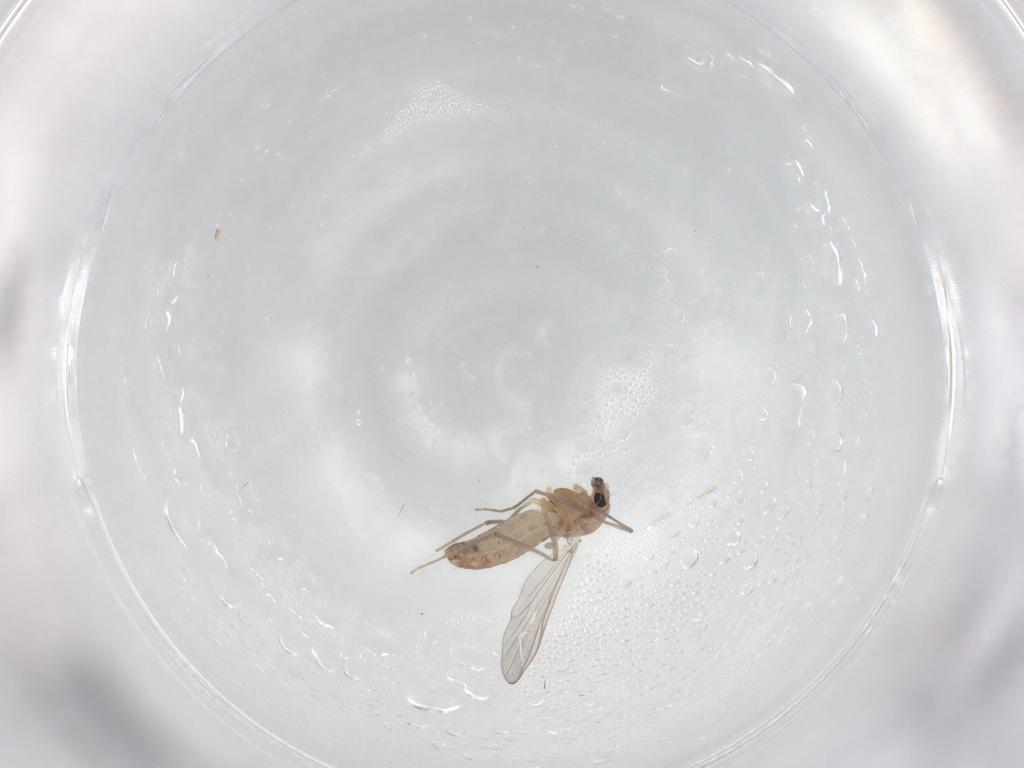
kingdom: Animalia
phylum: Arthropoda
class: Insecta
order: Diptera
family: Chironomidae
